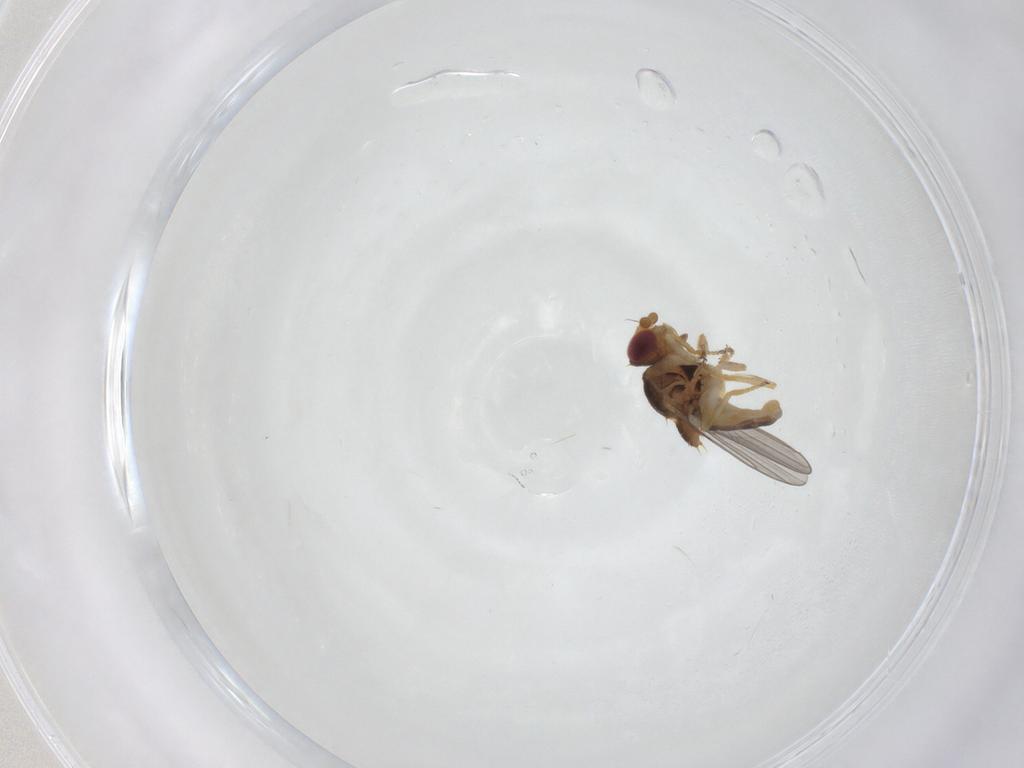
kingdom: Animalia
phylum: Arthropoda
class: Insecta
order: Diptera
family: Chloropidae
